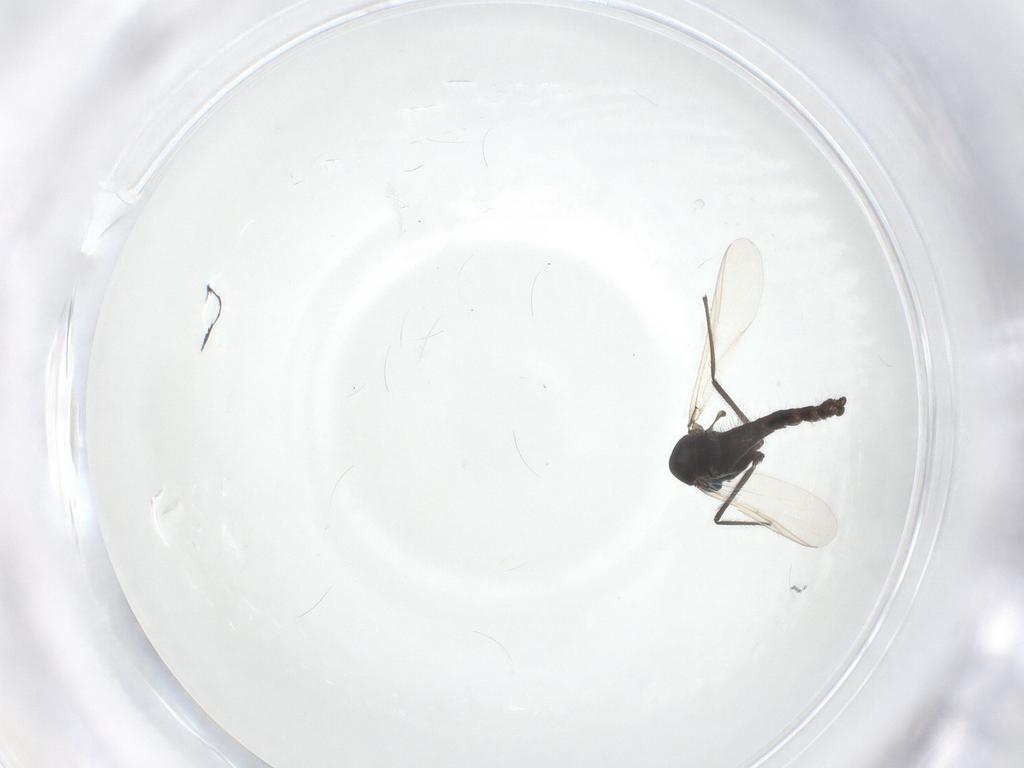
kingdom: Animalia
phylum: Arthropoda
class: Insecta
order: Diptera
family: Chironomidae
